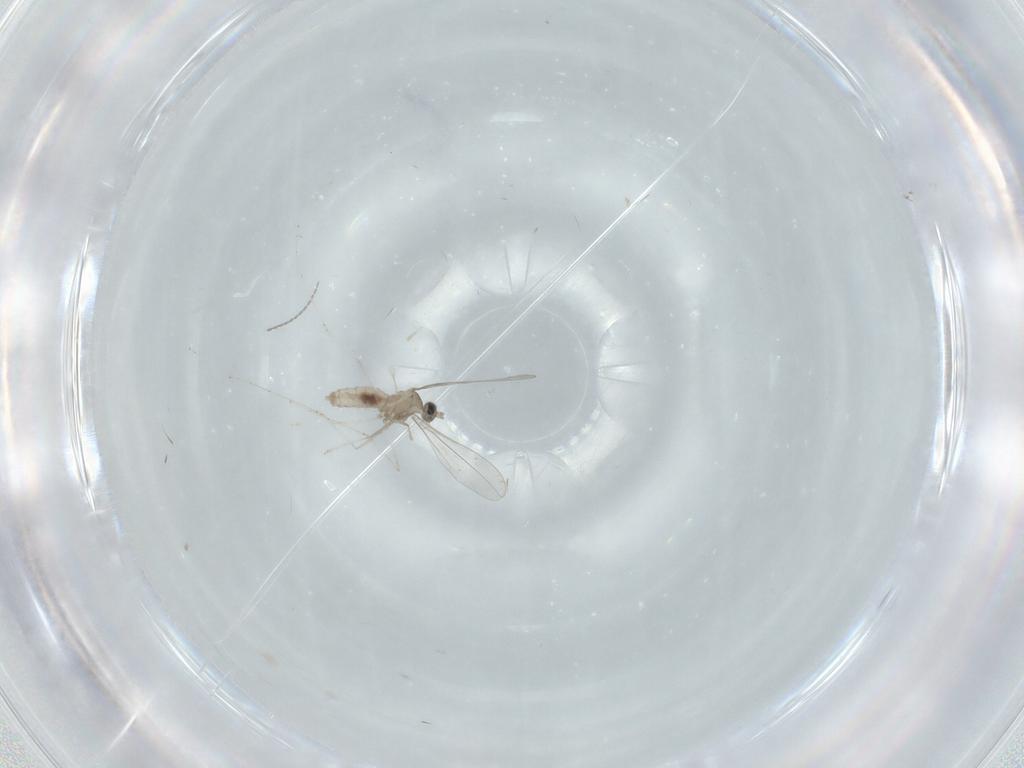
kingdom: Animalia
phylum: Arthropoda
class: Insecta
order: Diptera
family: Cecidomyiidae
